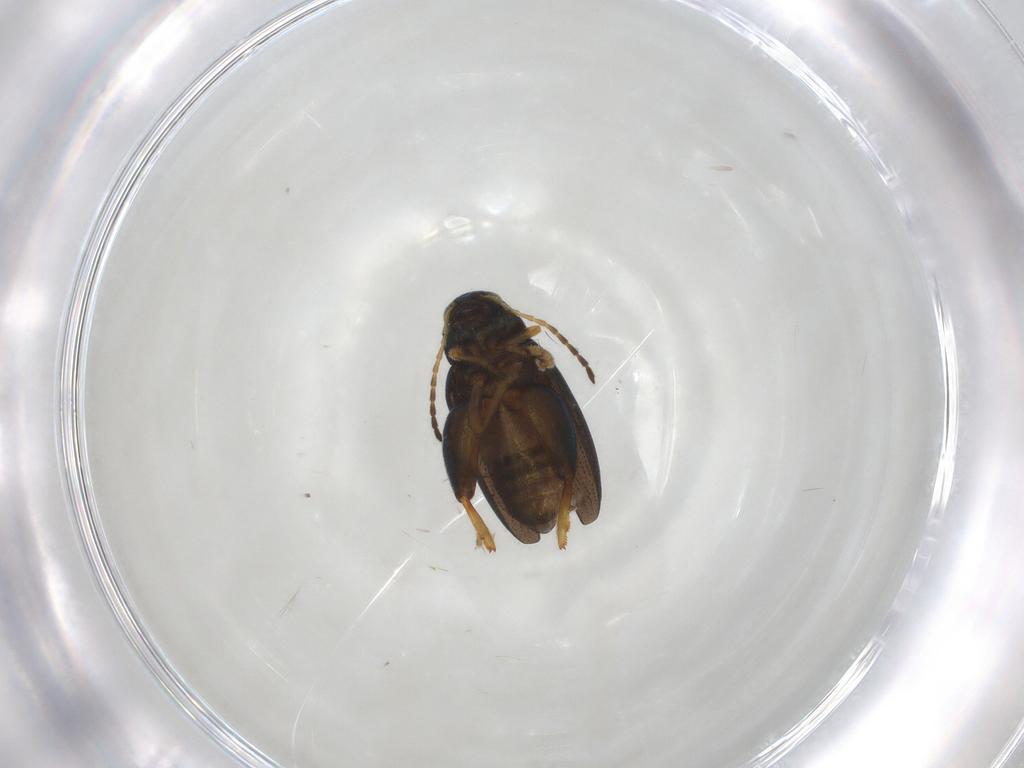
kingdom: Animalia
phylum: Arthropoda
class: Insecta
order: Coleoptera
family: Chrysomelidae
